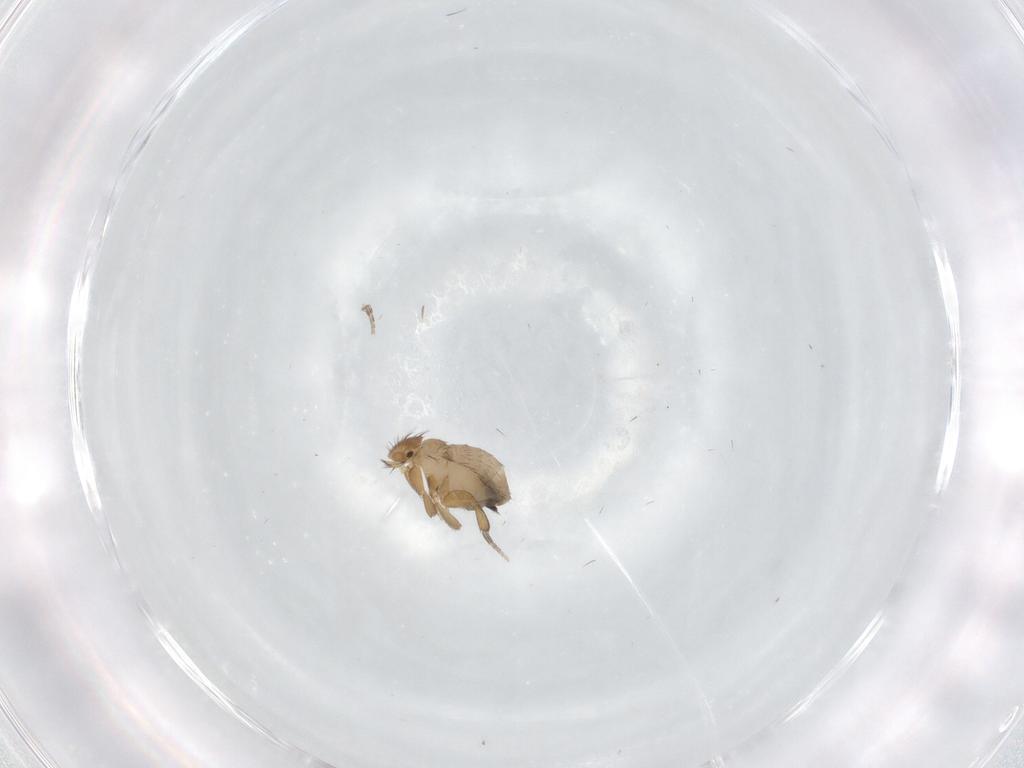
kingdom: Animalia
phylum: Arthropoda
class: Insecta
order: Diptera
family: Phoridae
